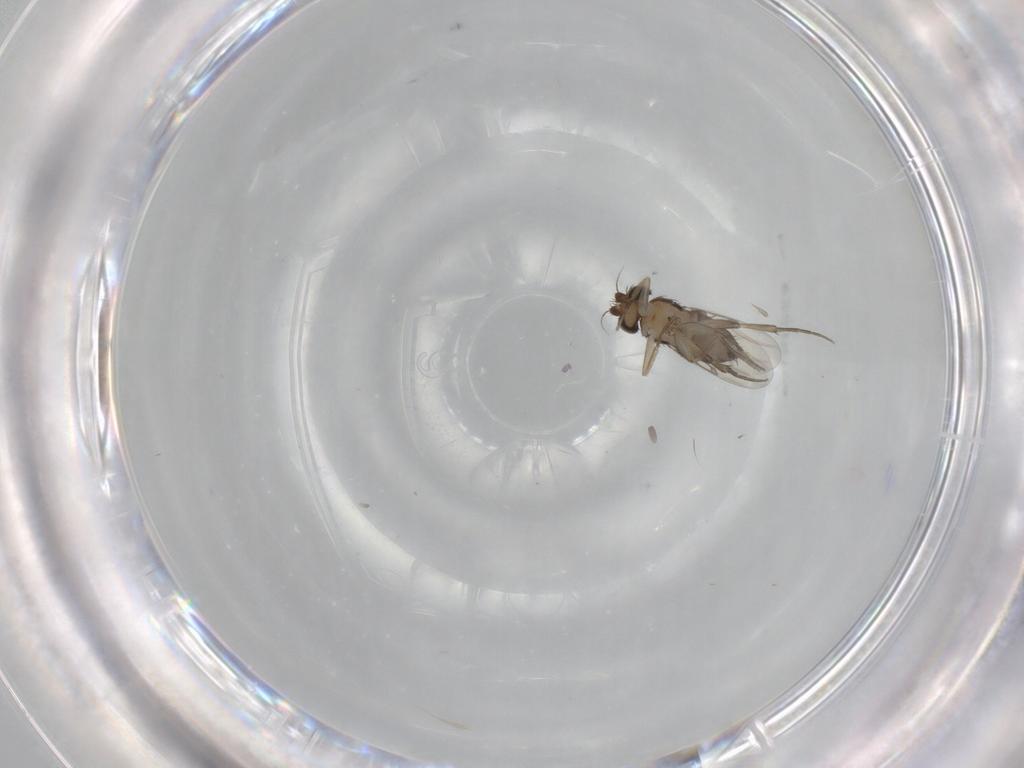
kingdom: Animalia
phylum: Arthropoda
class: Insecta
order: Diptera
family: Phoridae
